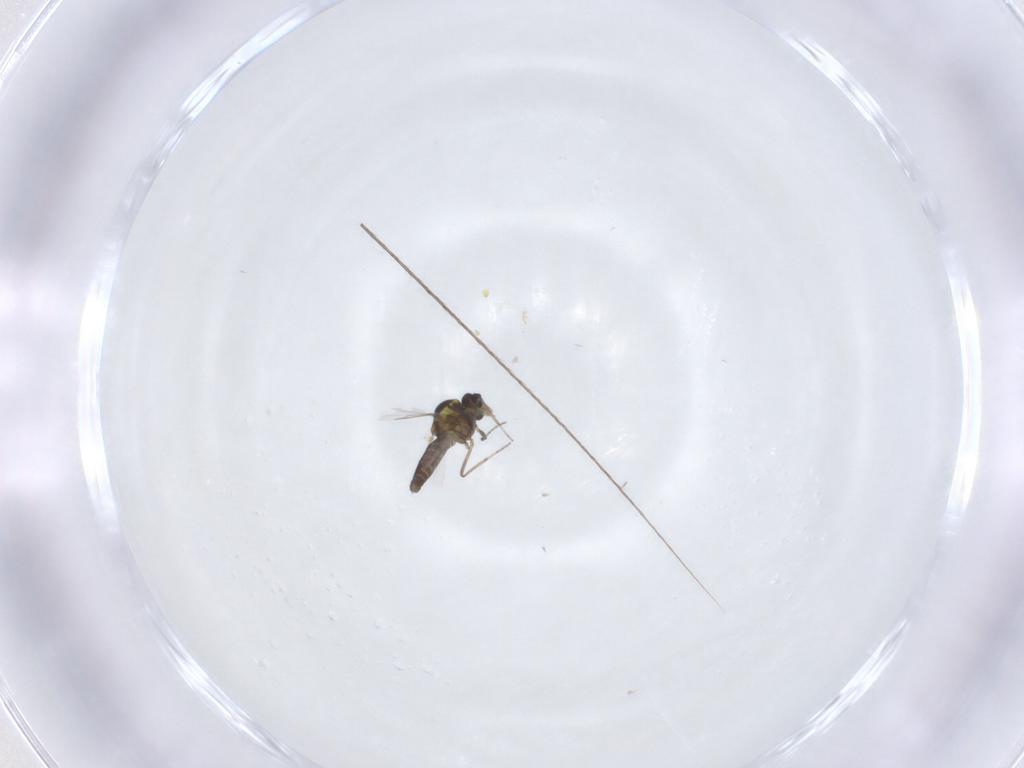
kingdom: Animalia
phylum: Arthropoda
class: Insecta
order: Diptera
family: Ceratopogonidae
